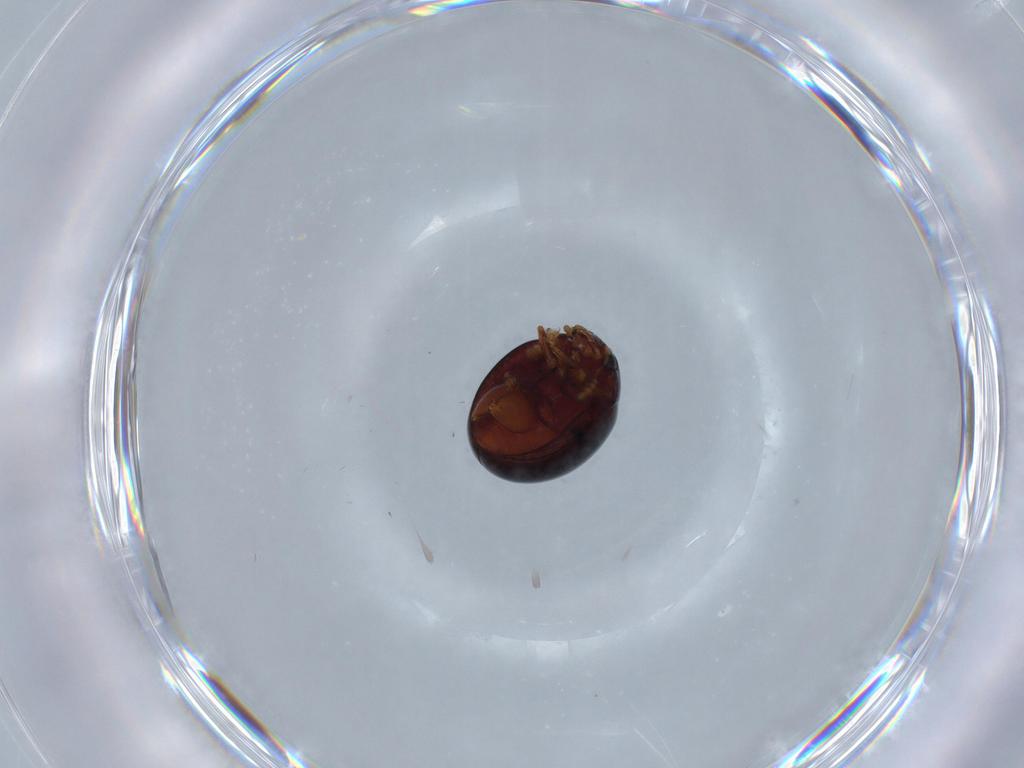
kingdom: Animalia
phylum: Arthropoda
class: Insecta
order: Coleoptera
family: Chrysomelidae
